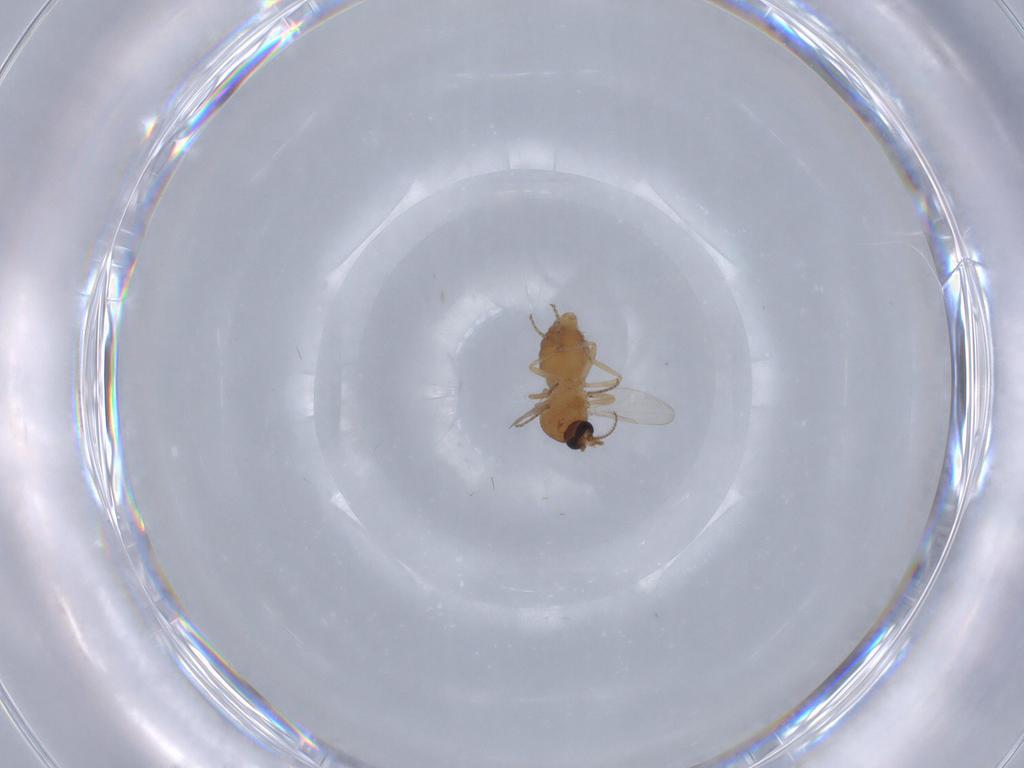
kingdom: Animalia
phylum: Arthropoda
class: Insecta
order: Diptera
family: Ceratopogonidae
